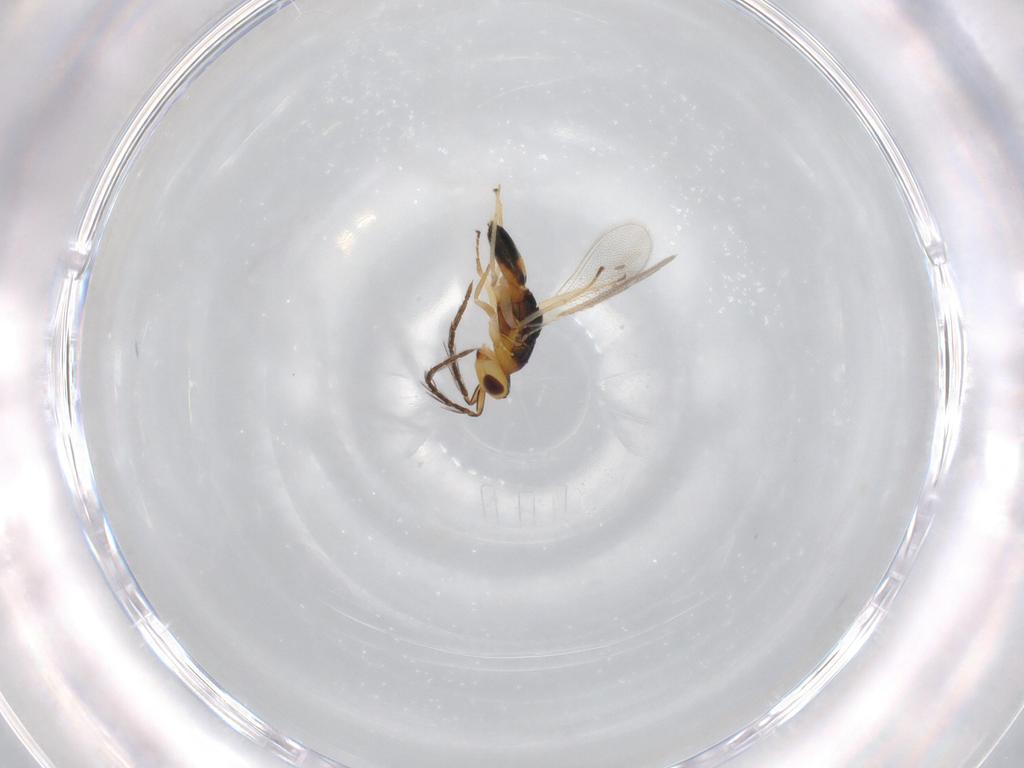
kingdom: Animalia
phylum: Arthropoda
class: Insecta
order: Hymenoptera
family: Eulophidae
